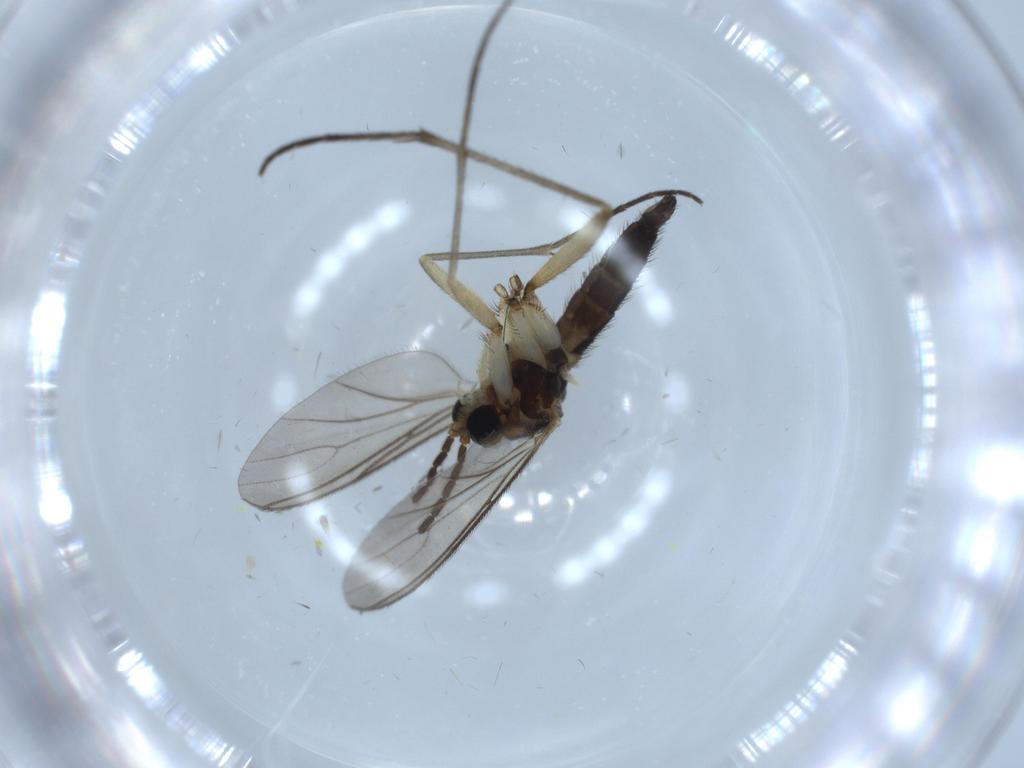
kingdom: Animalia
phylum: Arthropoda
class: Insecta
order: Diptera
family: Sciaridae
